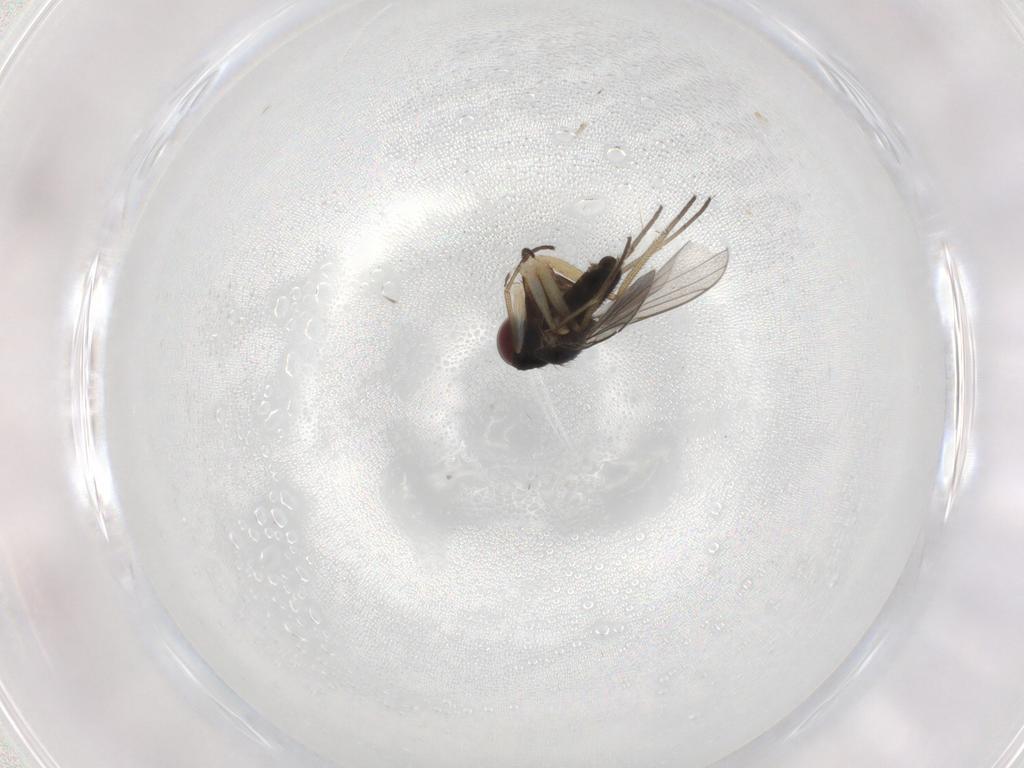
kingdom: Animalia
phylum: Arthropoda
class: Insecta
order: Diptera
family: Dolichopodidae
